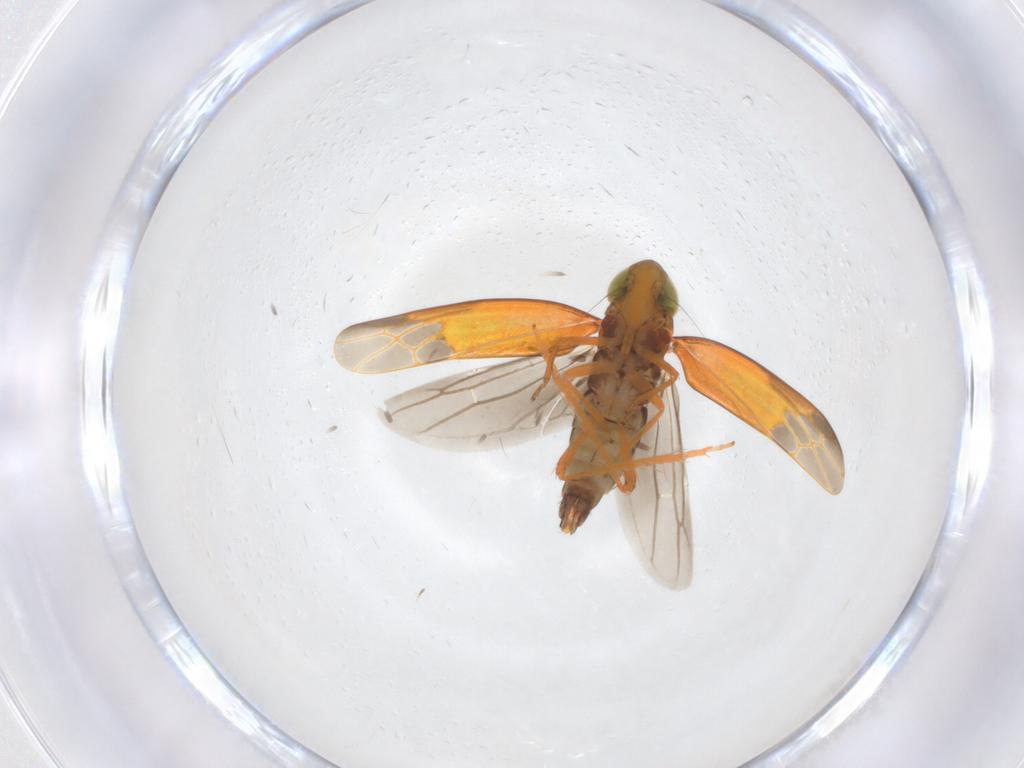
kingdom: Animalia
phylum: Arthropoda
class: Insecta
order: Hemiptera
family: Cicadellidae
